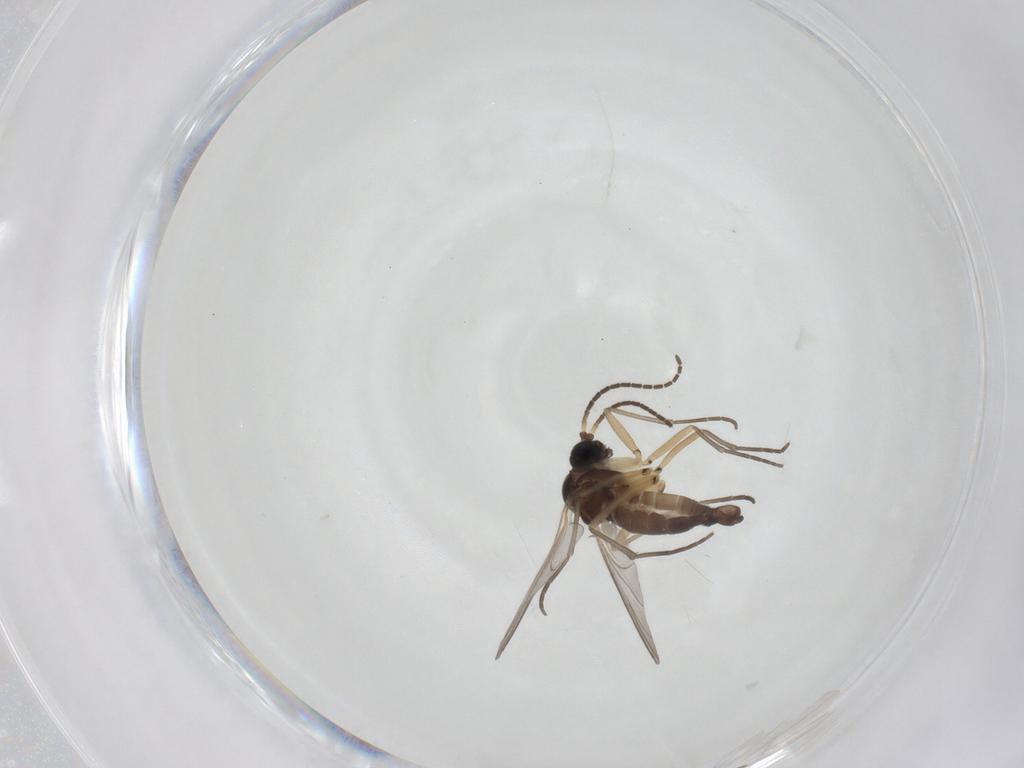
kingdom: Animalia
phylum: Arthropoda
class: Insecta
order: Diptera
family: Sciaridae
